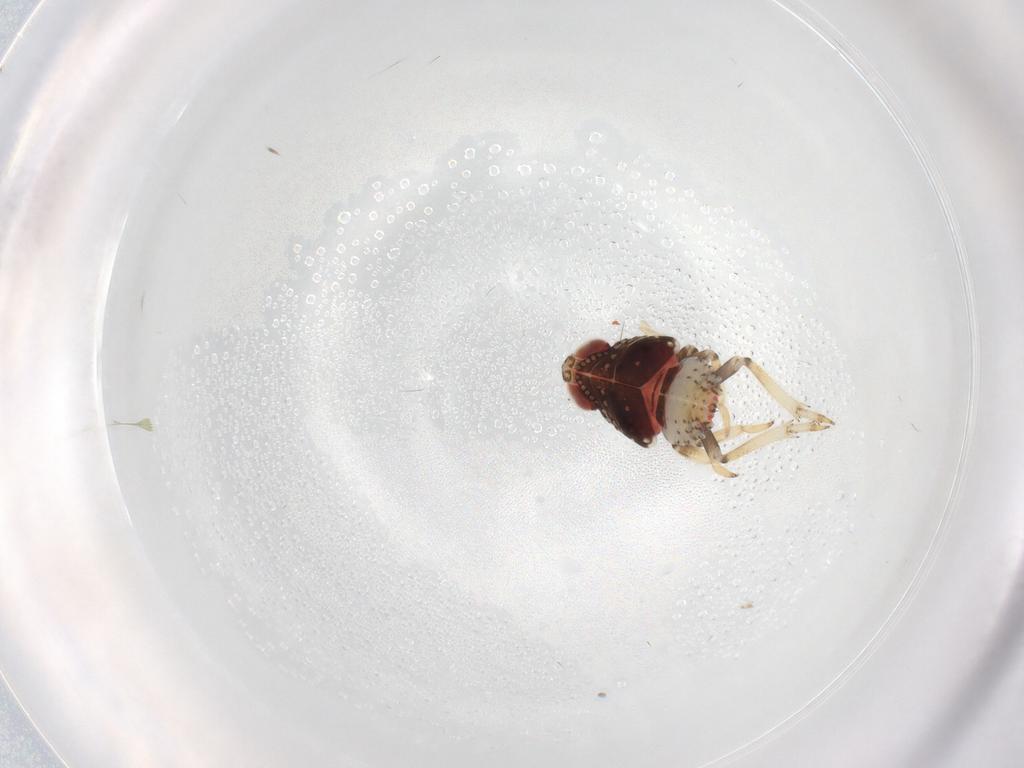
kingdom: Animalia
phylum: Arthropoda
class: Insecta
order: Hemiptera
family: Issidae
